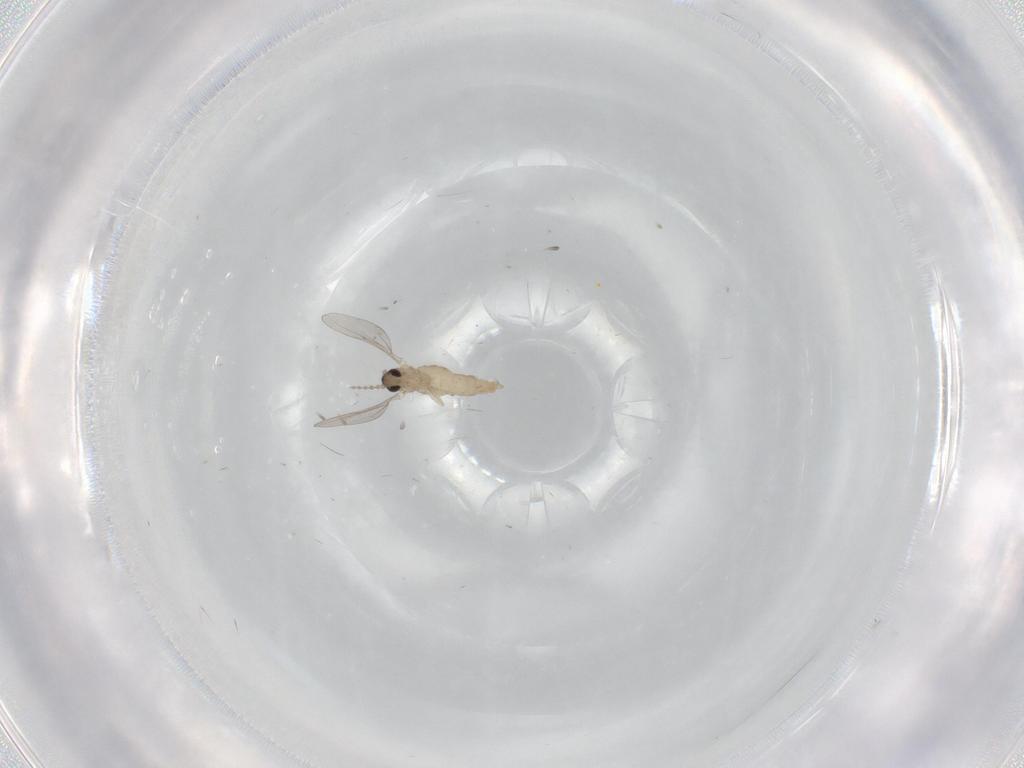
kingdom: Animalia
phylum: Arthropoda
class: Insecta
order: Diptera
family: Cecidomyiidae
